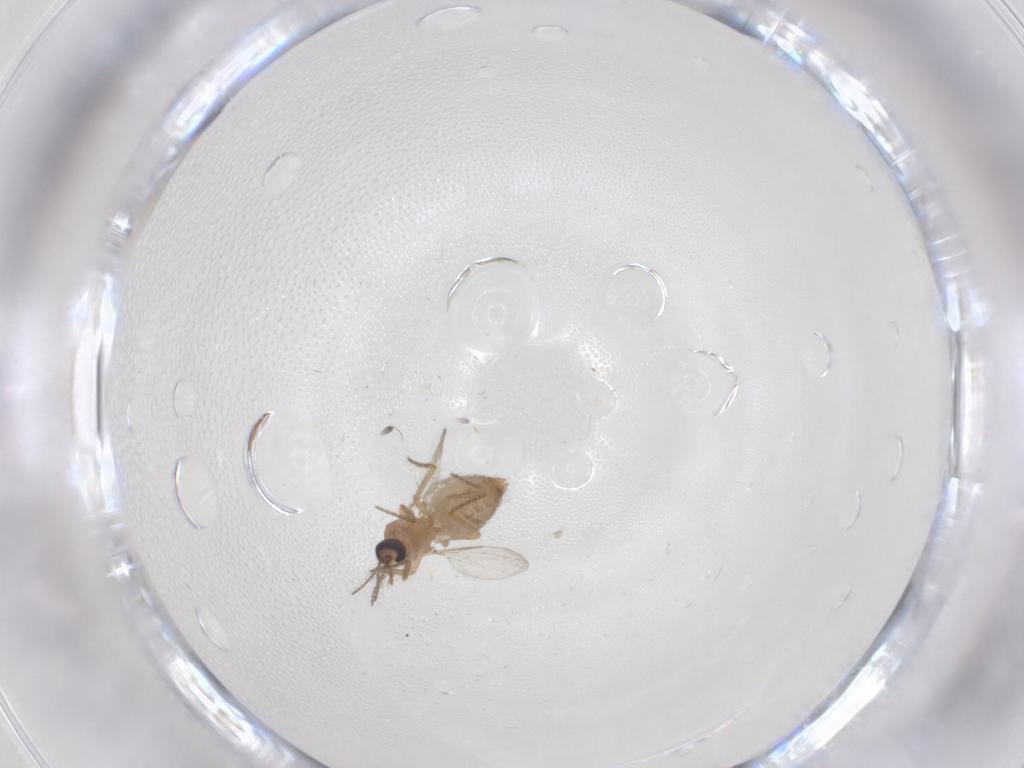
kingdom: Animalia
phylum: Arthropoda
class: Insecta
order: Diptera
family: Ceratopogonidae
